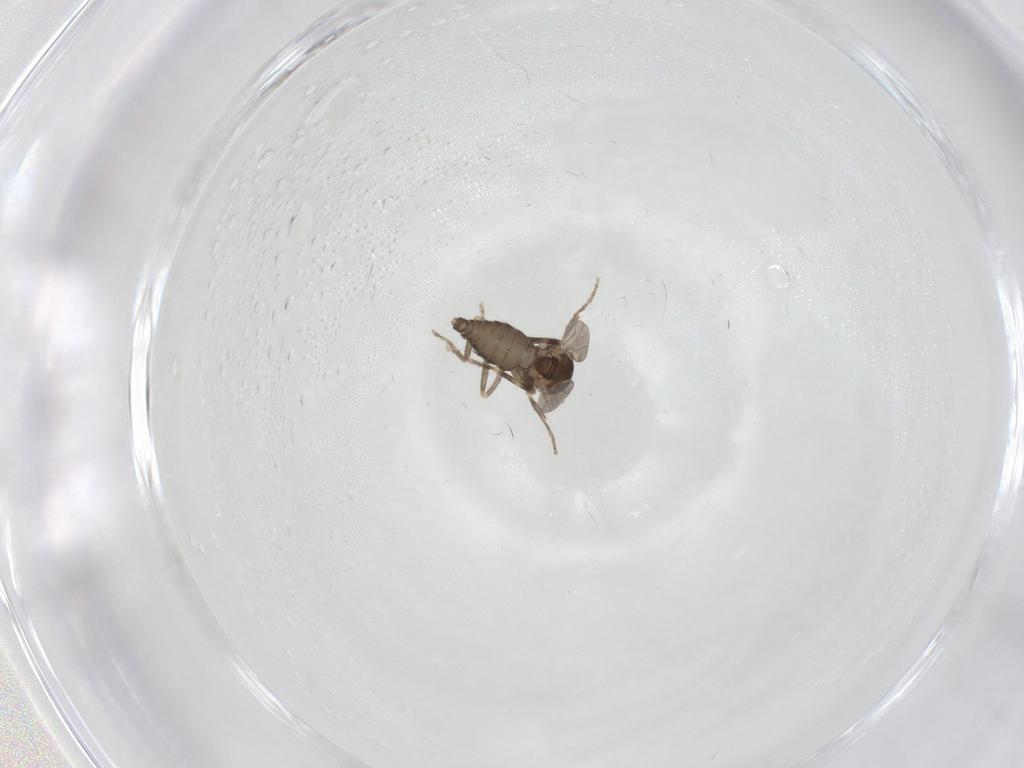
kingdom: Animalia
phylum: Arthropoda
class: Insecta
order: Diptera
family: Ceratopogonidae
